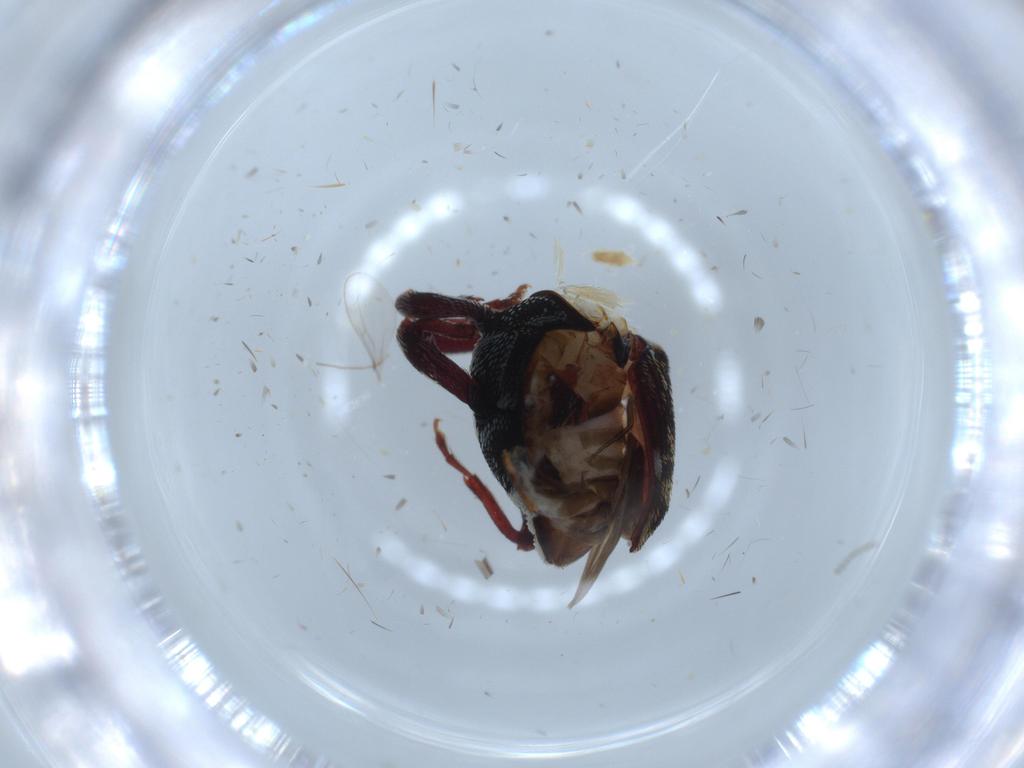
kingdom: Animalia
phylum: Arthropoda
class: Insecta
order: Coleoptera
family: Curculionidae
